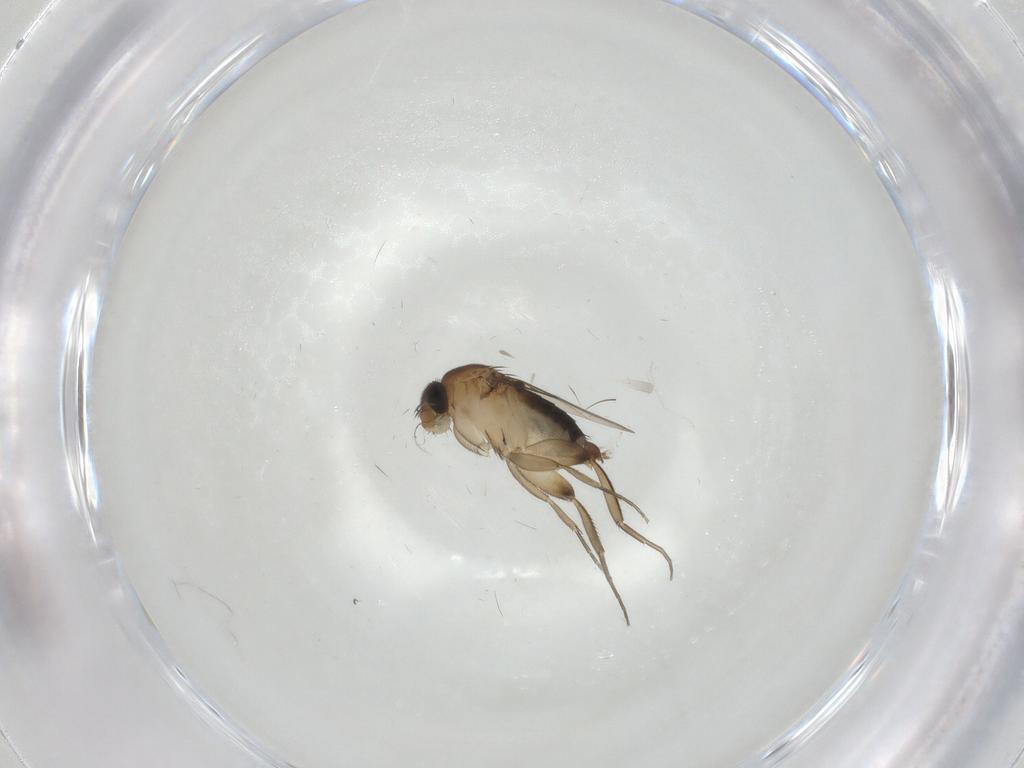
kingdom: Animalia
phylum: Arthropoda
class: Insecta
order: Diptera
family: Phoridae
